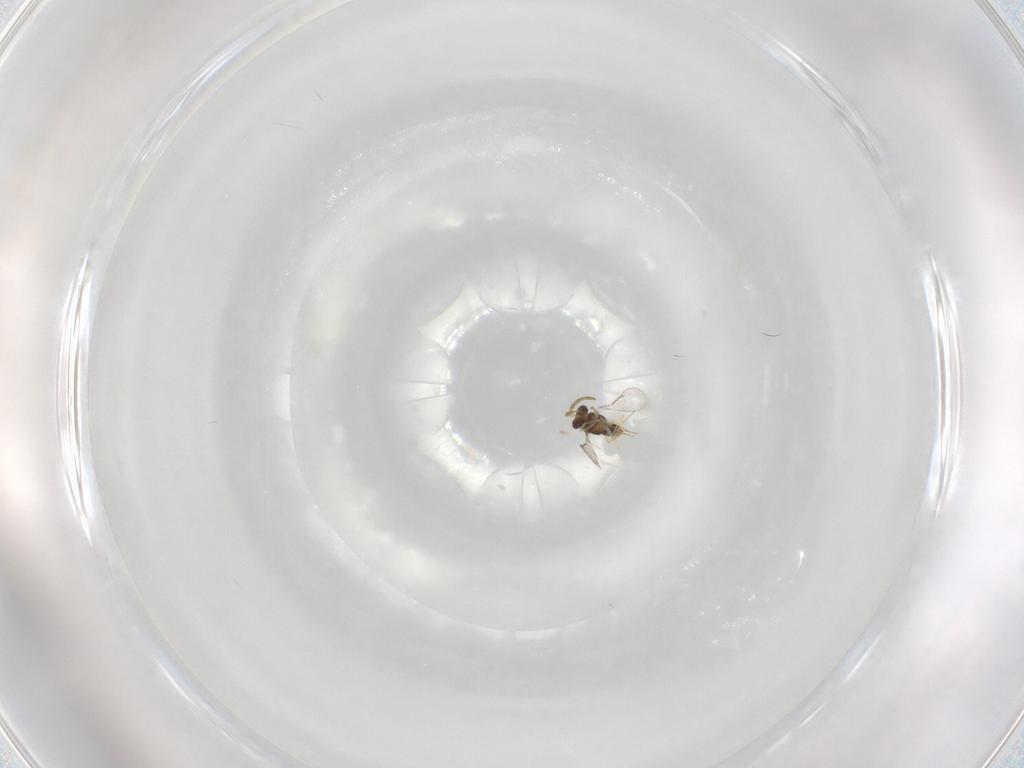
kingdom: Animalia
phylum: Arthropoda
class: Insecta
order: Hymenoptera
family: Aphelinidae
